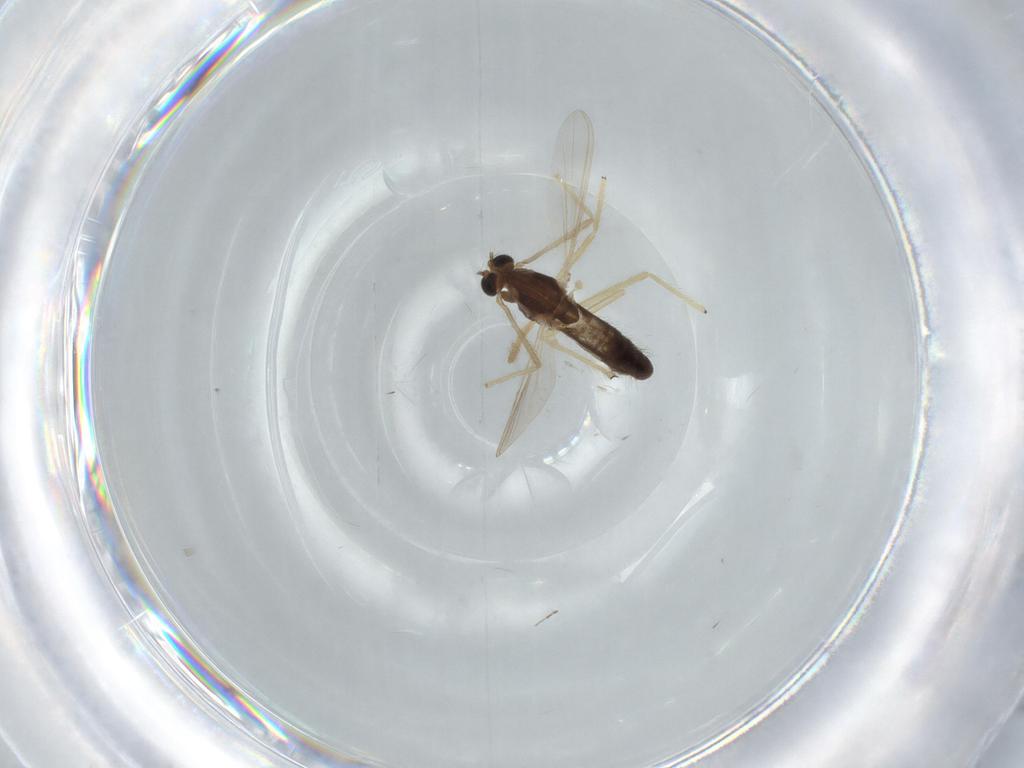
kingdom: Animalia
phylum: Arthropoda
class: Insecta
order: Diptera
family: Chironomidae
